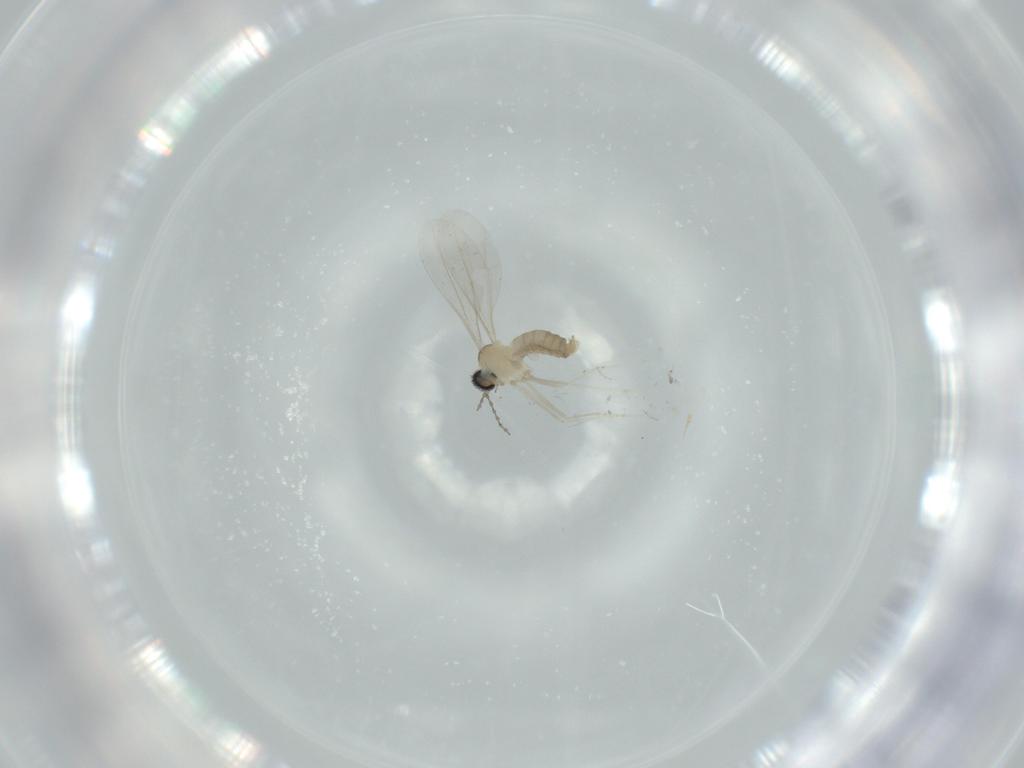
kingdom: Animalia
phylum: Arthropoda
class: Insecta
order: Diptera
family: Cecidomyiidae
